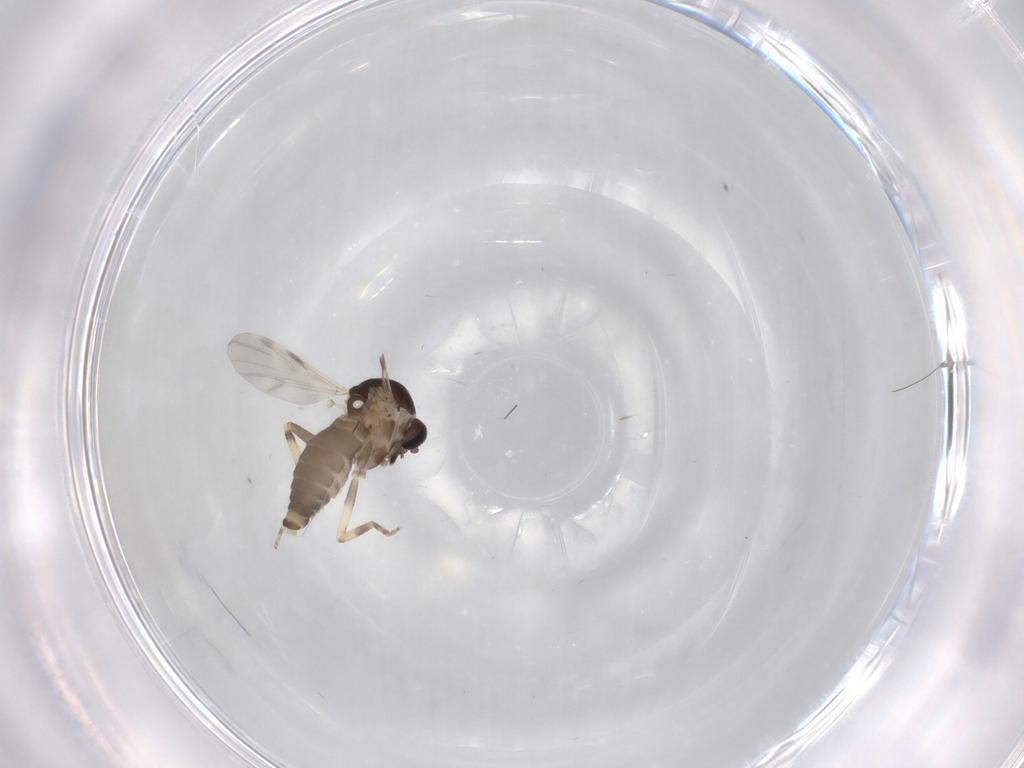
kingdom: Animalia
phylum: Arthropoda
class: Insecta
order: Diptera
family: Ceratopogonidae
